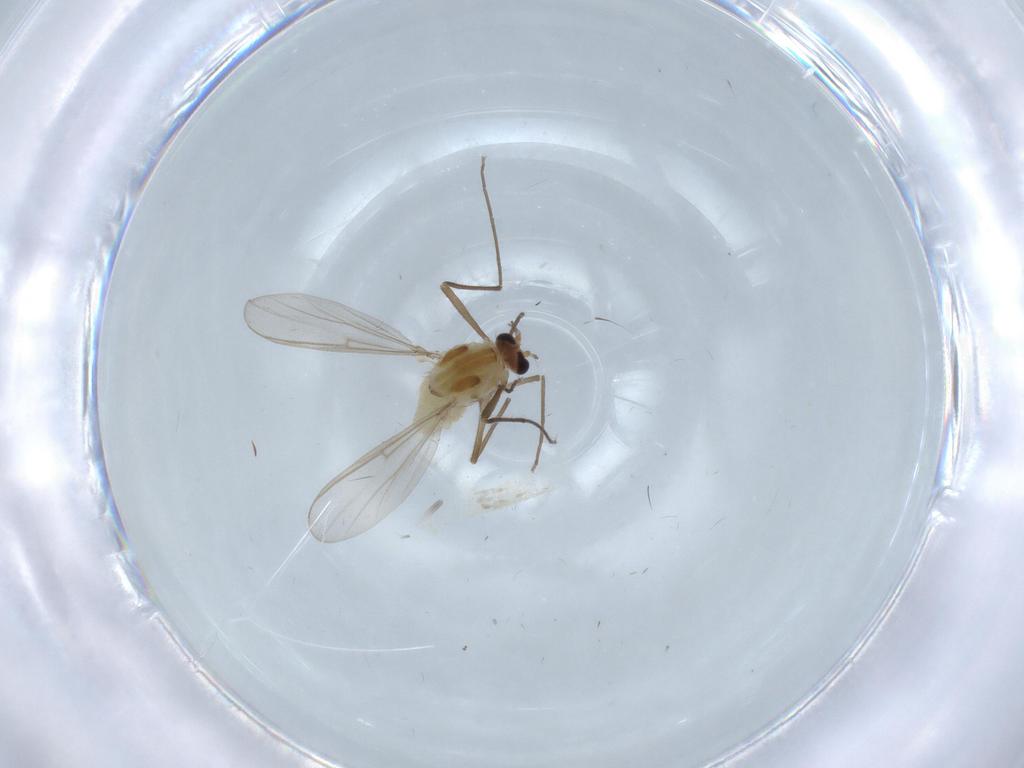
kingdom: Animalia
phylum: Arthropoda
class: Insecta
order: Diptera
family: Chironomidae
